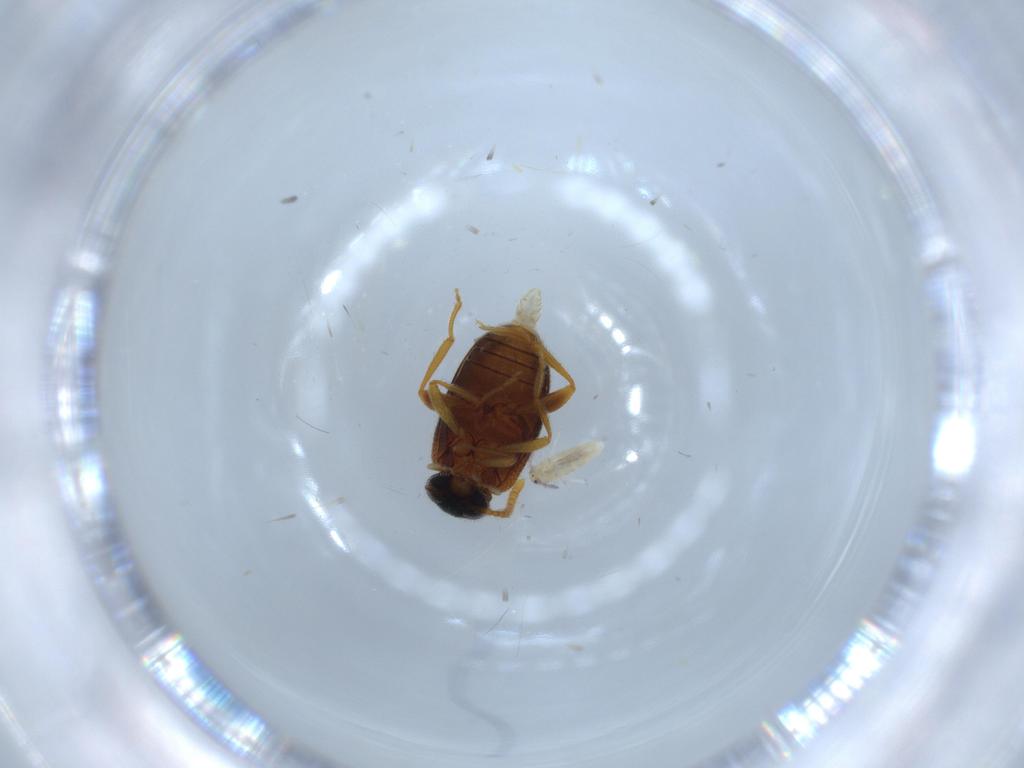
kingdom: Animalia
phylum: Arthropoda
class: Insecta
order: Coleoptera
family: Aderidae
